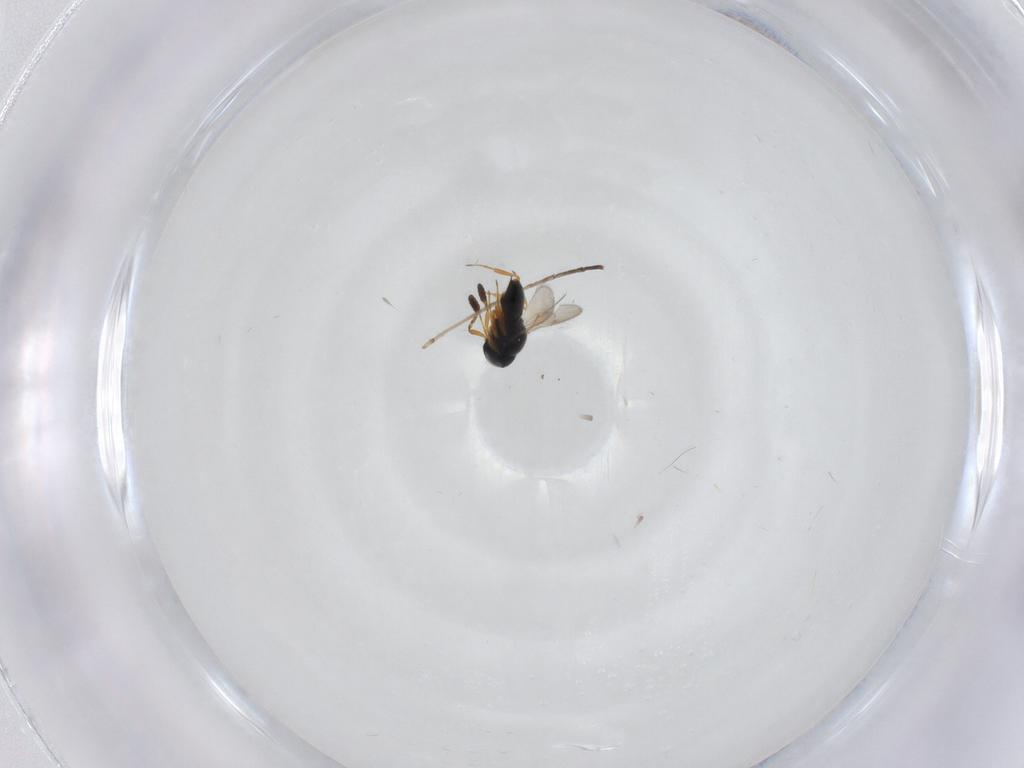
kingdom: Animalia
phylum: Arthropoda
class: Insecta
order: Hymenoptera
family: Scelionidae
